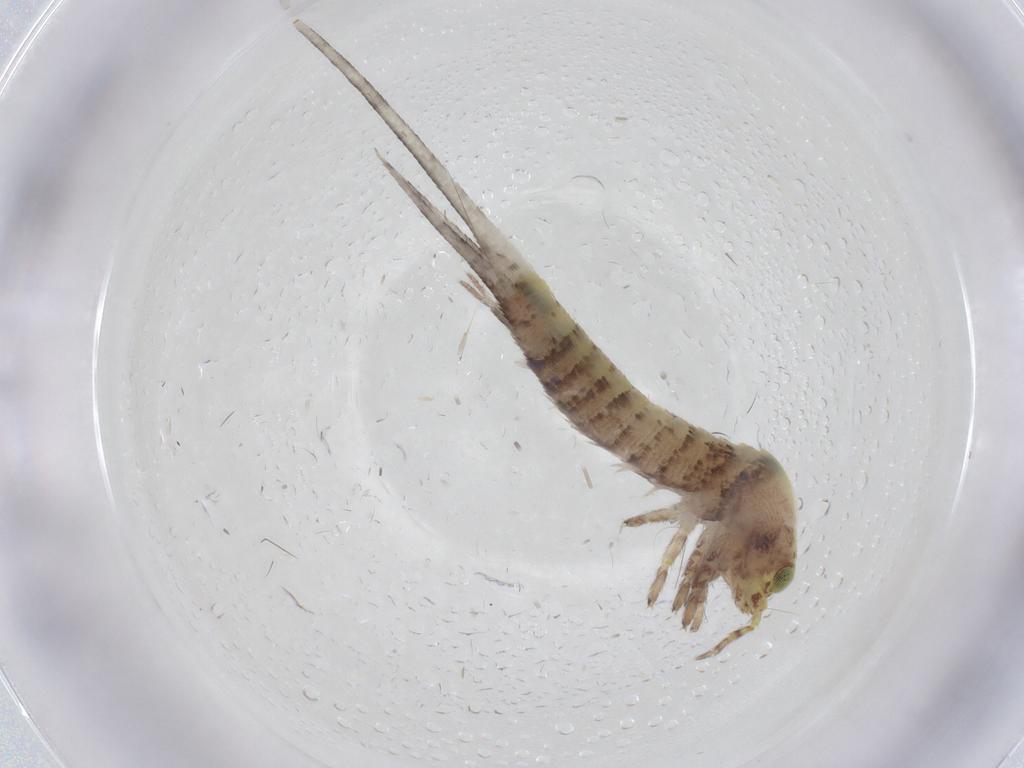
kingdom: Animalia
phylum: Arthropoda
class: Insecta
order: Archaeognatha
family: Machilidae
